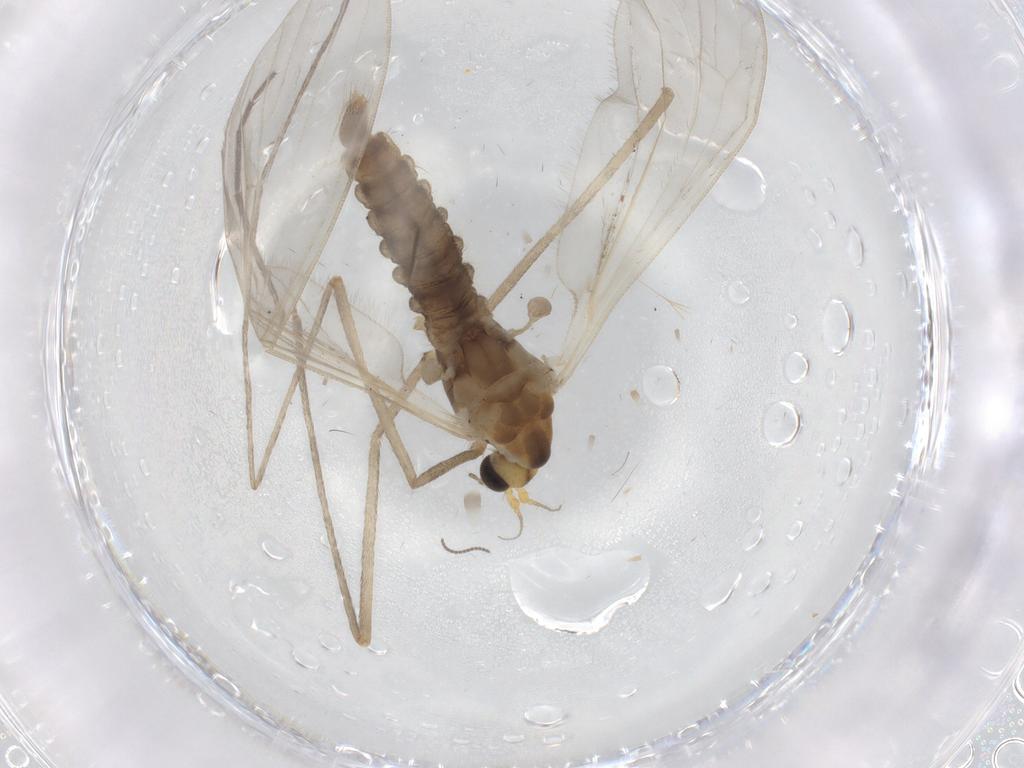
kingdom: Animalia
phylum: Arthropoda
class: Insecta
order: Diptera
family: Limoniidae
